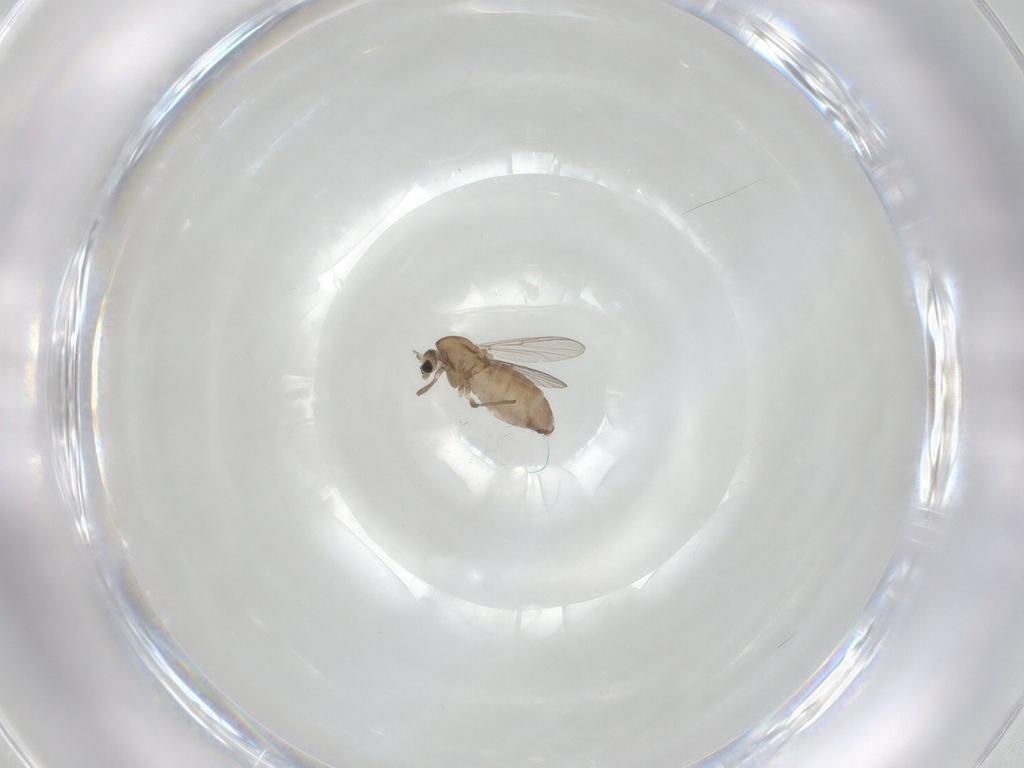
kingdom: Animalia
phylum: Arthropoda
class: Insecta
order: Diptera
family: Chironomidae
